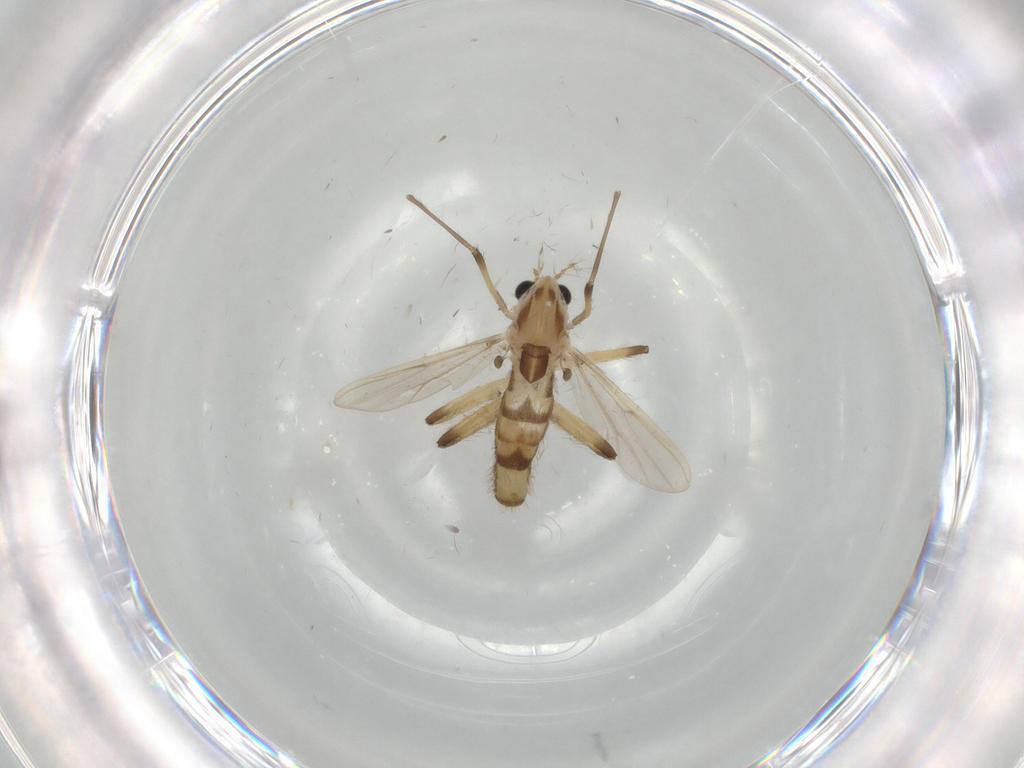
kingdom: Animalia
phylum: Arthropoda
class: Insecta
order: Diptera
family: Chironomidae
